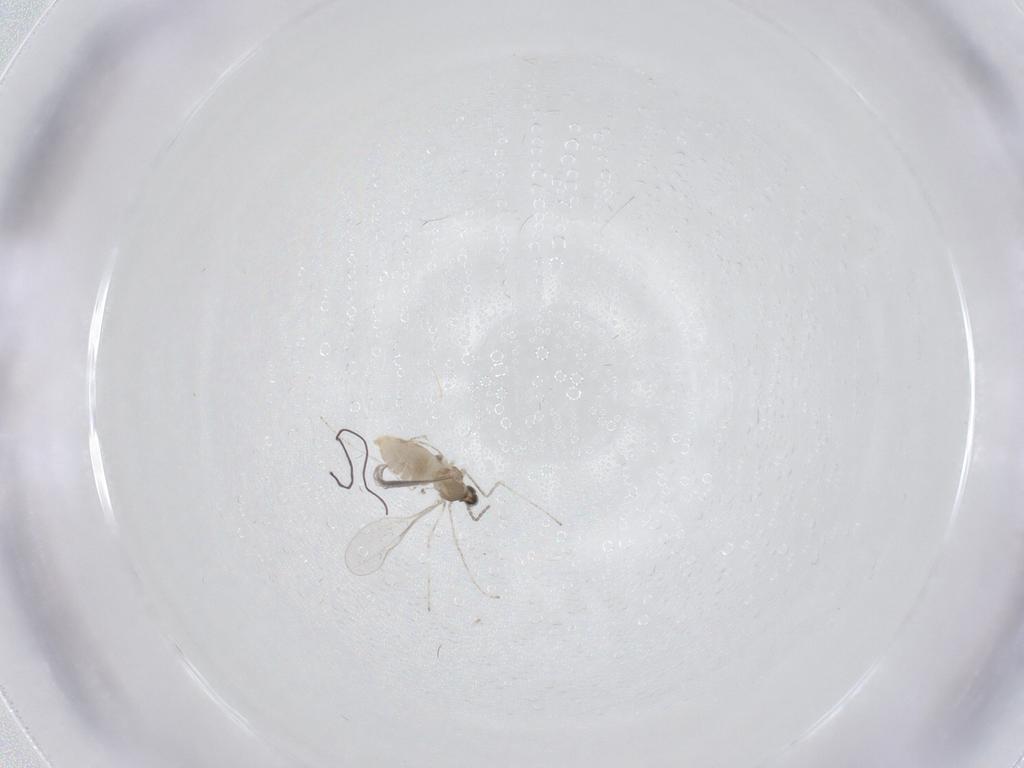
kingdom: Animalia
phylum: Arthropoda
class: Insecta
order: Diptera
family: Cecidomyiidae
